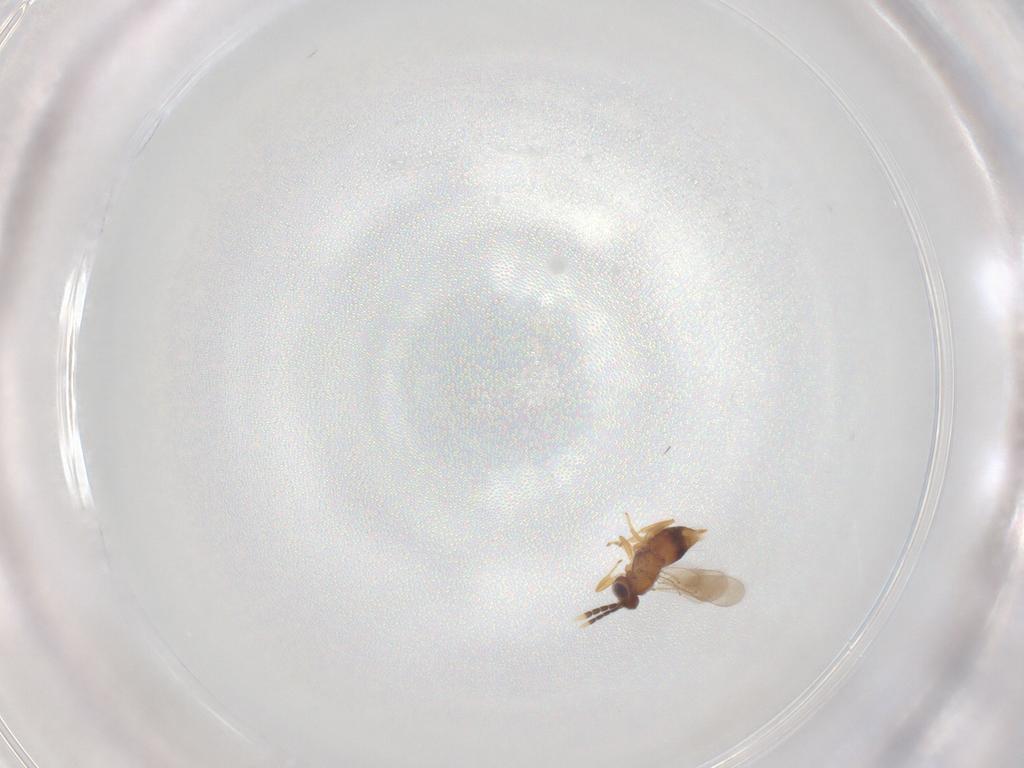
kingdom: Animalia
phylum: Arthropoda
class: Insecta
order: Hymenoptera
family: Aphelinidae
